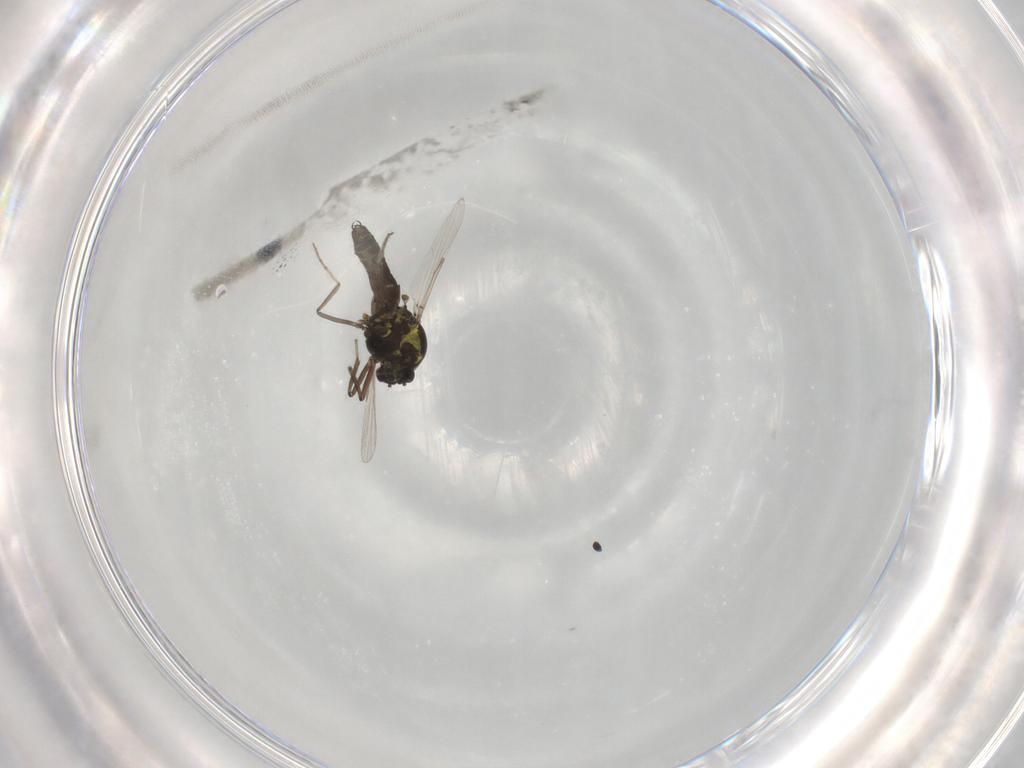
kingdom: Animalia
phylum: Arthropoda
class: Insecta
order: Diptera
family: Ceratopogonidae
